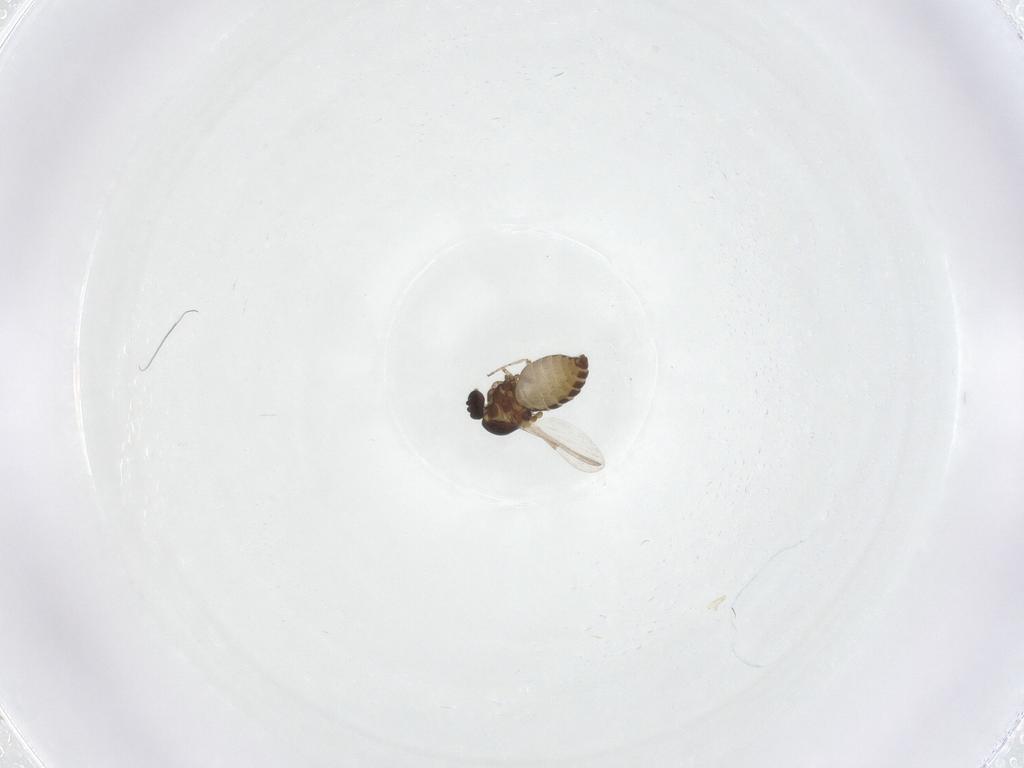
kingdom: Animalia
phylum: Arthropoda
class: Insecta
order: Diptera
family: Ceratopogonidae
